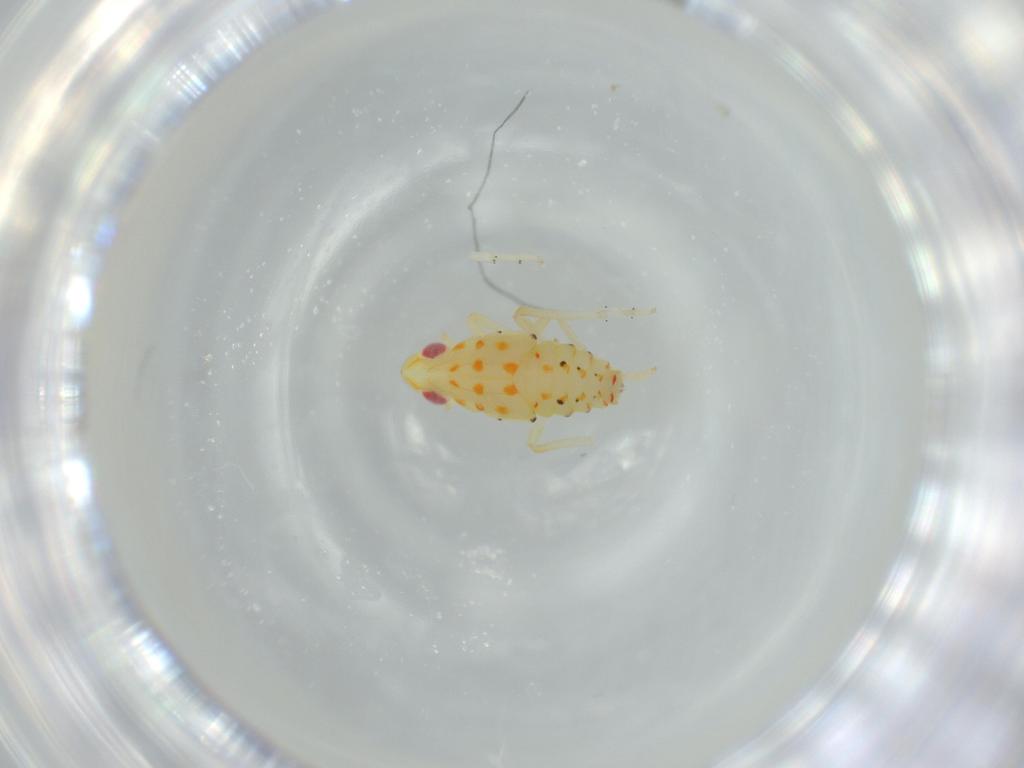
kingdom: Animalia
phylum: Arthropoda
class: Insecta
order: Hemiptera
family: Tropiduchidae
